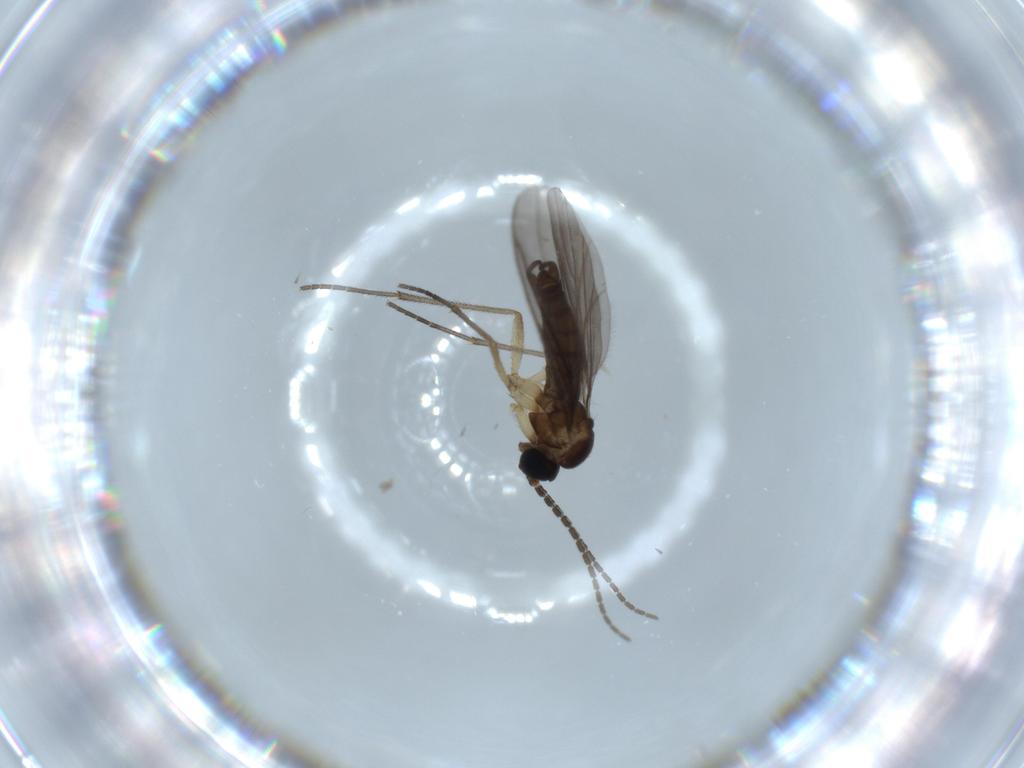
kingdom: Animalia
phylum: Arthropoda
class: Insecta
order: Diptera
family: Sciaridae
